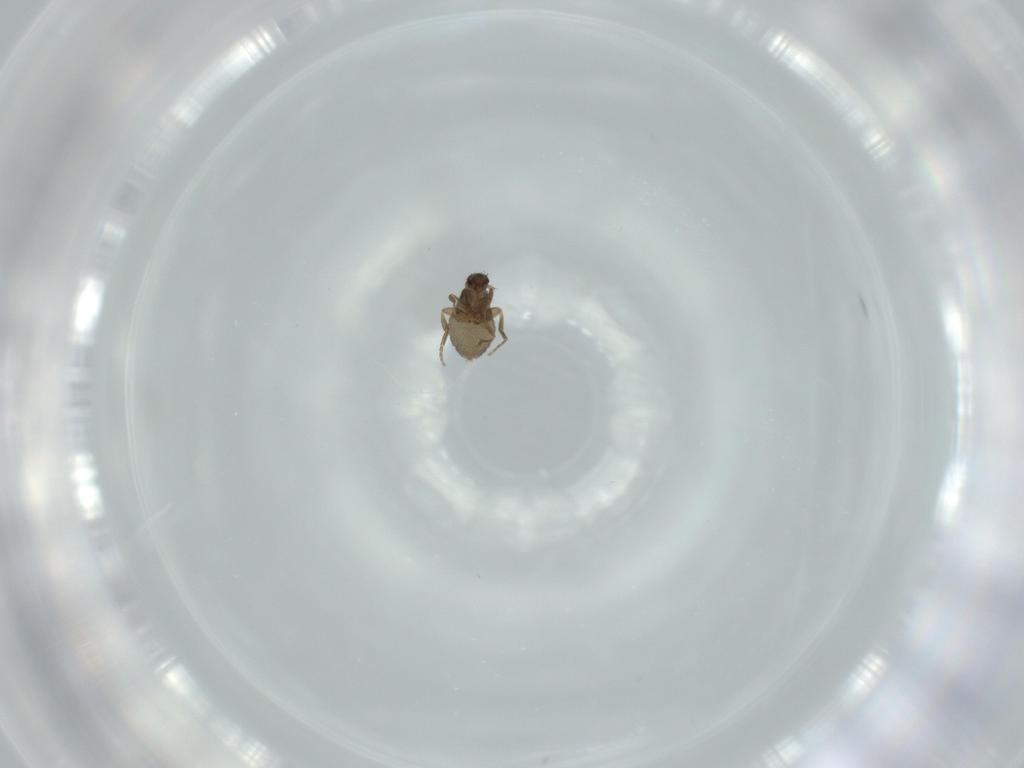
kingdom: Animalia
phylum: Arthropoda
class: Insecta
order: Diptera
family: Phoridae
